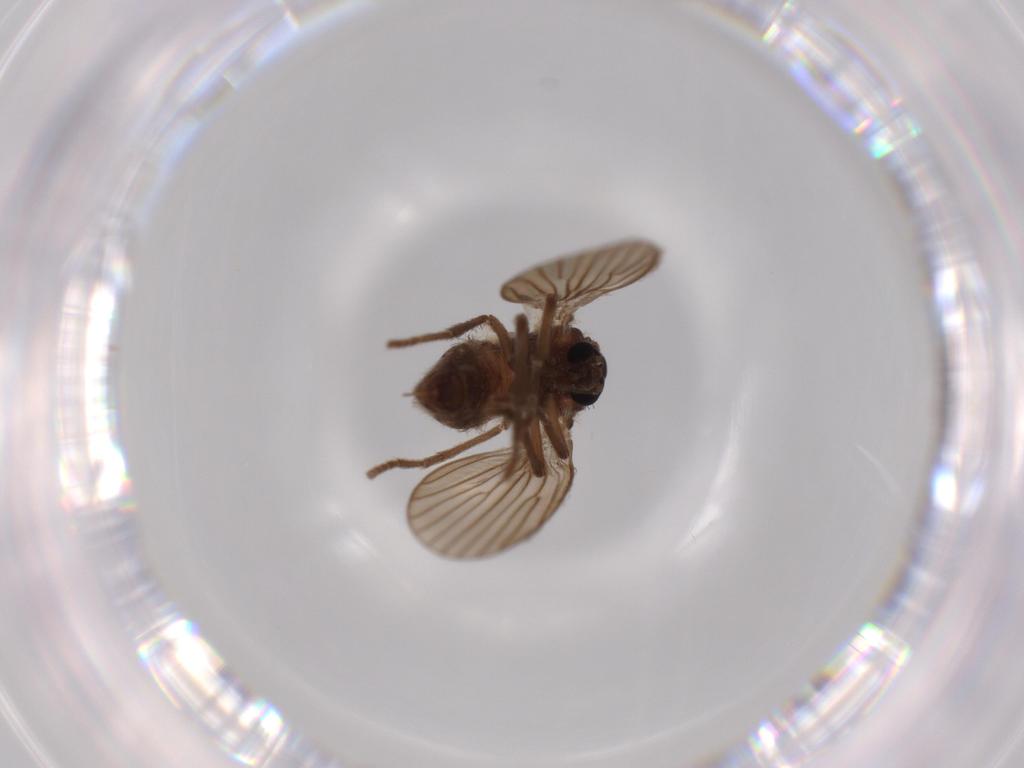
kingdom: Animalia
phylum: Arthropoda
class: Insecta
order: Diptera
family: Psychodidae
